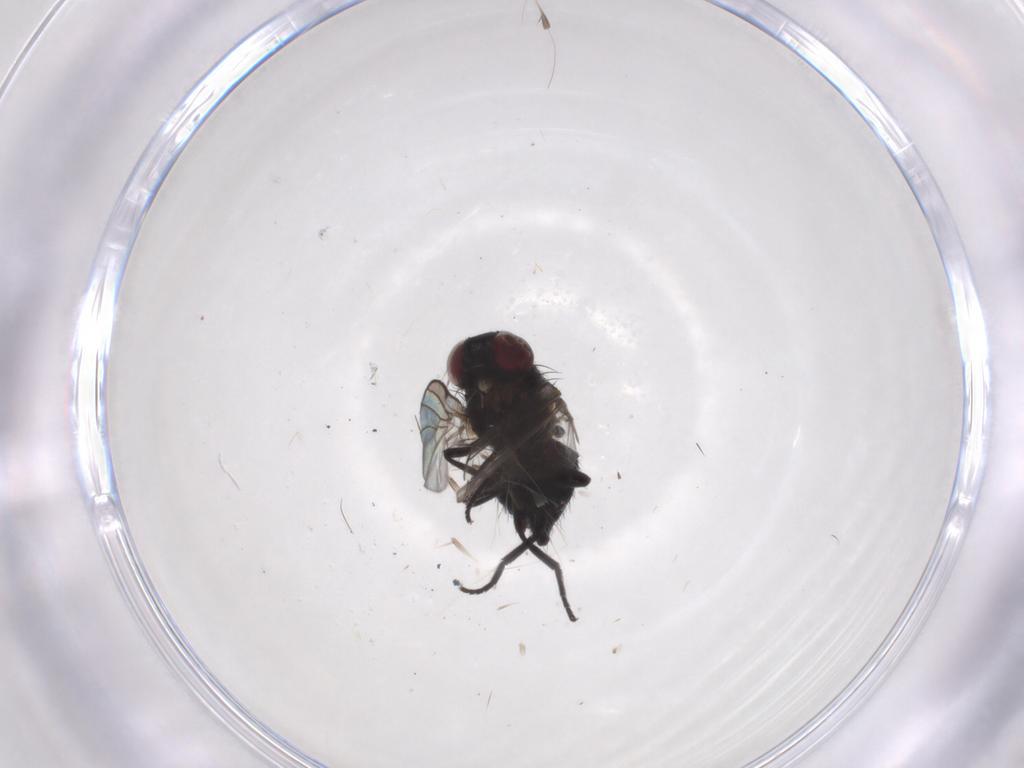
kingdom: Animalia
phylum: Arthropoda
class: Insecta
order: Diptera
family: Agromyzidae
